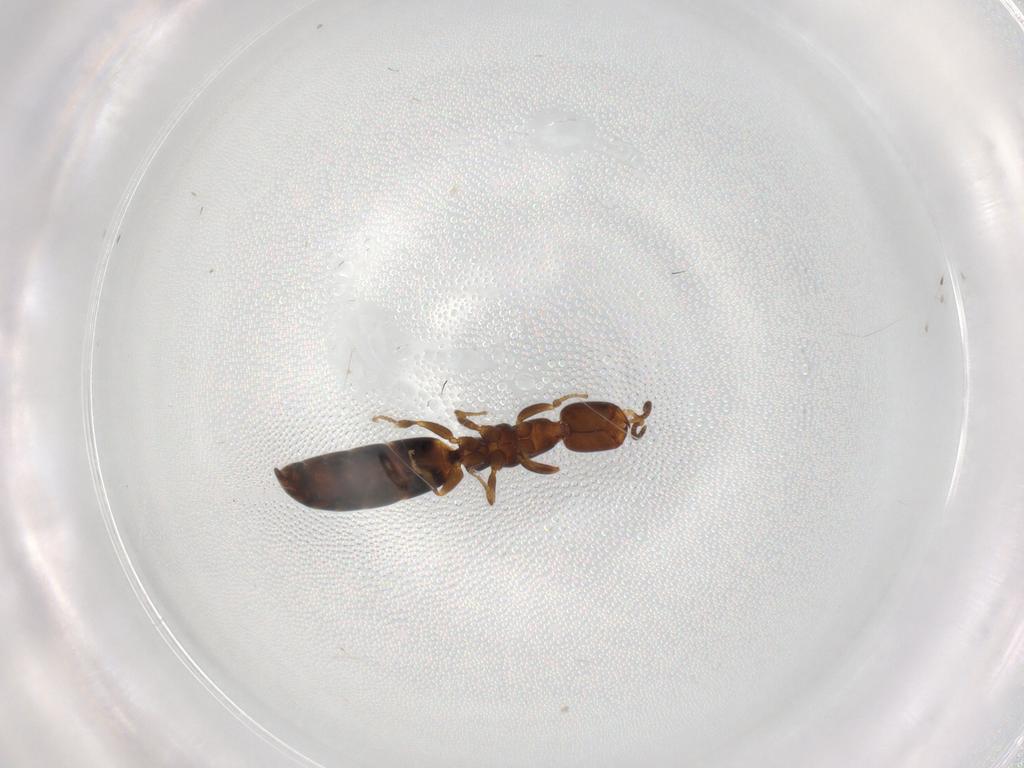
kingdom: Animalia
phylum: Arthropoda
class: Insecta
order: Hymenoptera
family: Bethylidae
